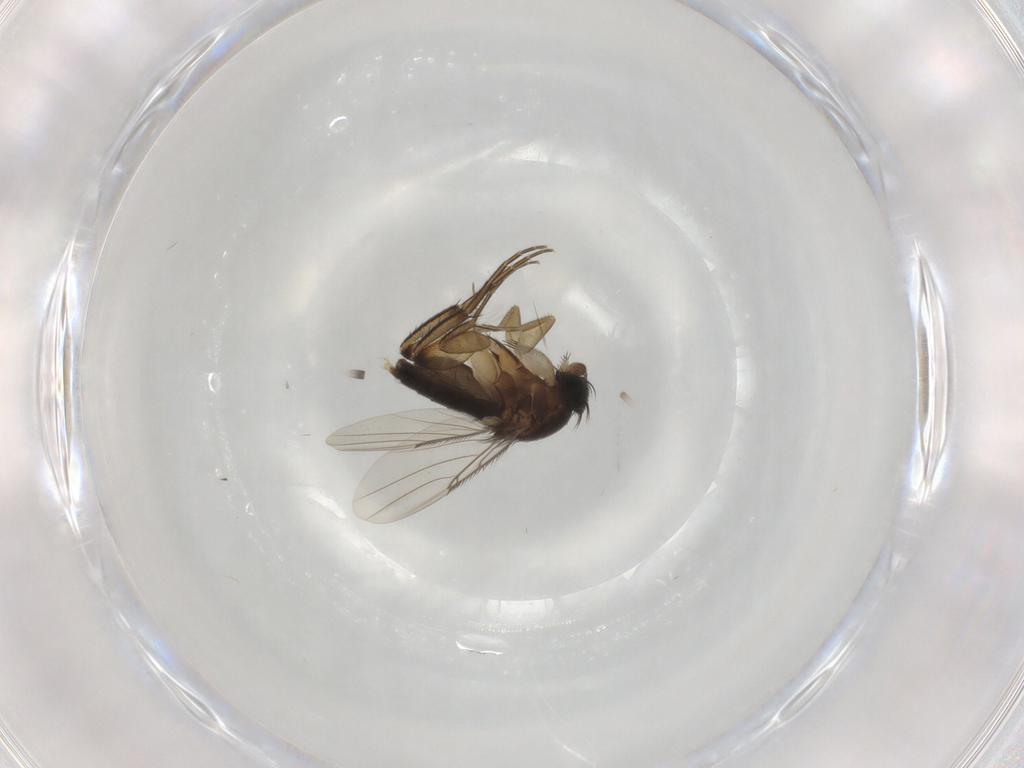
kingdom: Animalia
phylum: Arthropoda
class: Insecta
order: Diptera
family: Phoridae
